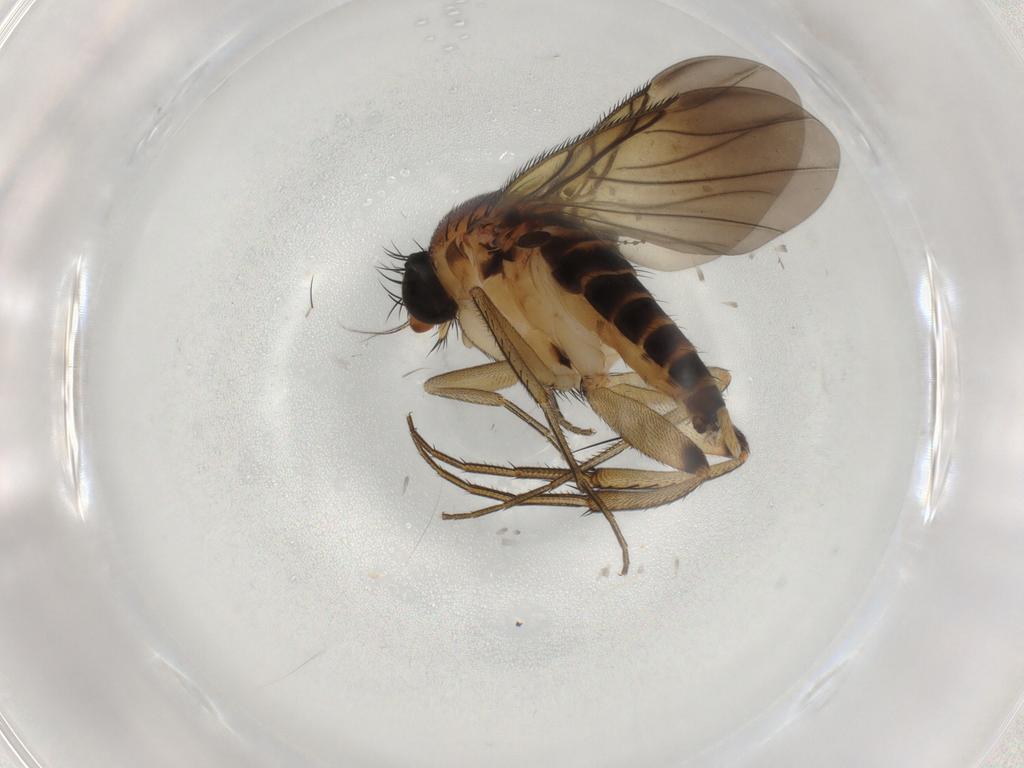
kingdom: Animalia
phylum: Arthropoda
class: Insecta
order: Diptera
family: Phoridae
